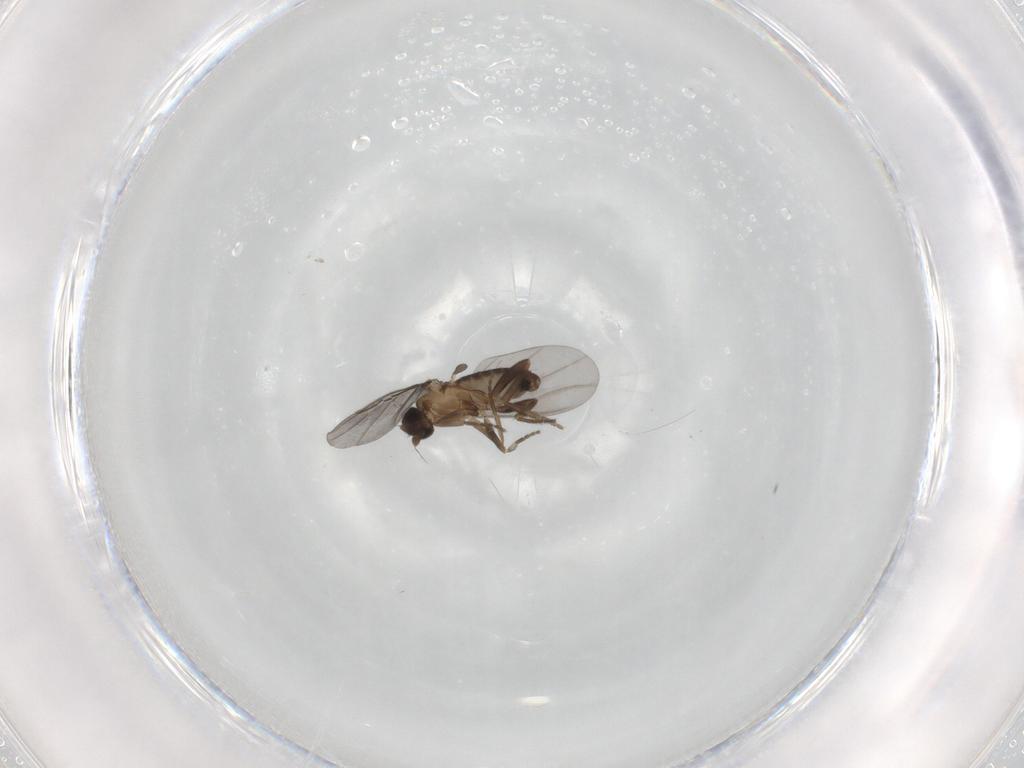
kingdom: Animalia
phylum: Arthropoda
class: Insecta
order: Diptera
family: Phoridae
